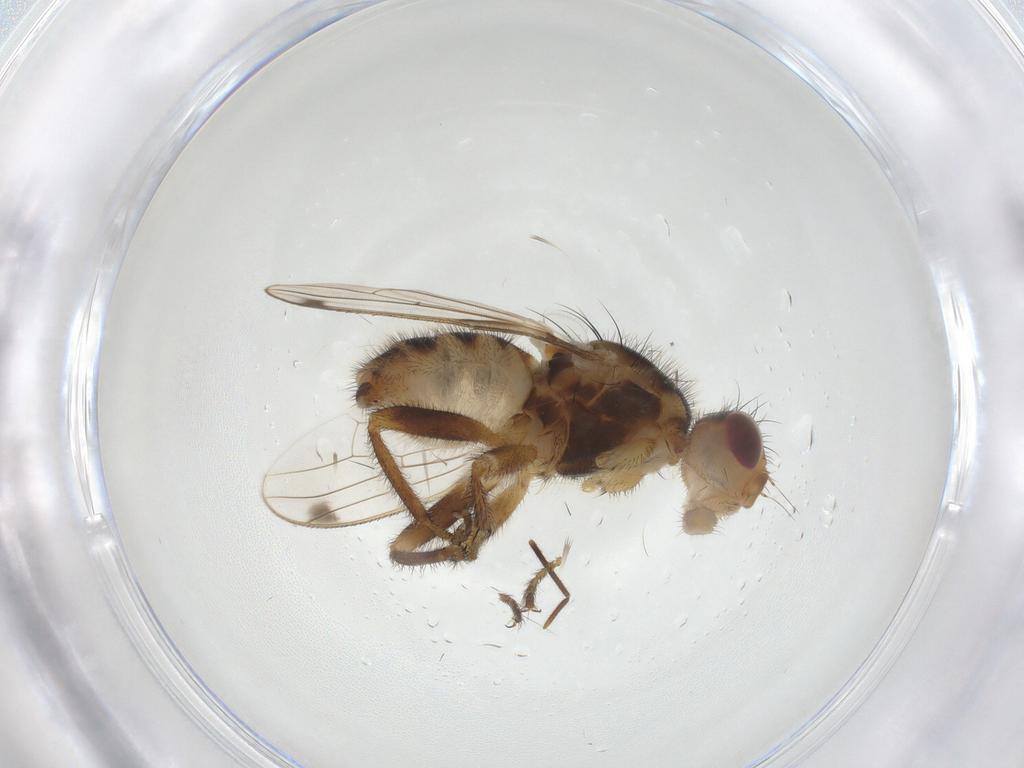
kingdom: Animalia
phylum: Arthropoda
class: Insecta
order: Diptera
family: Richardiidae
